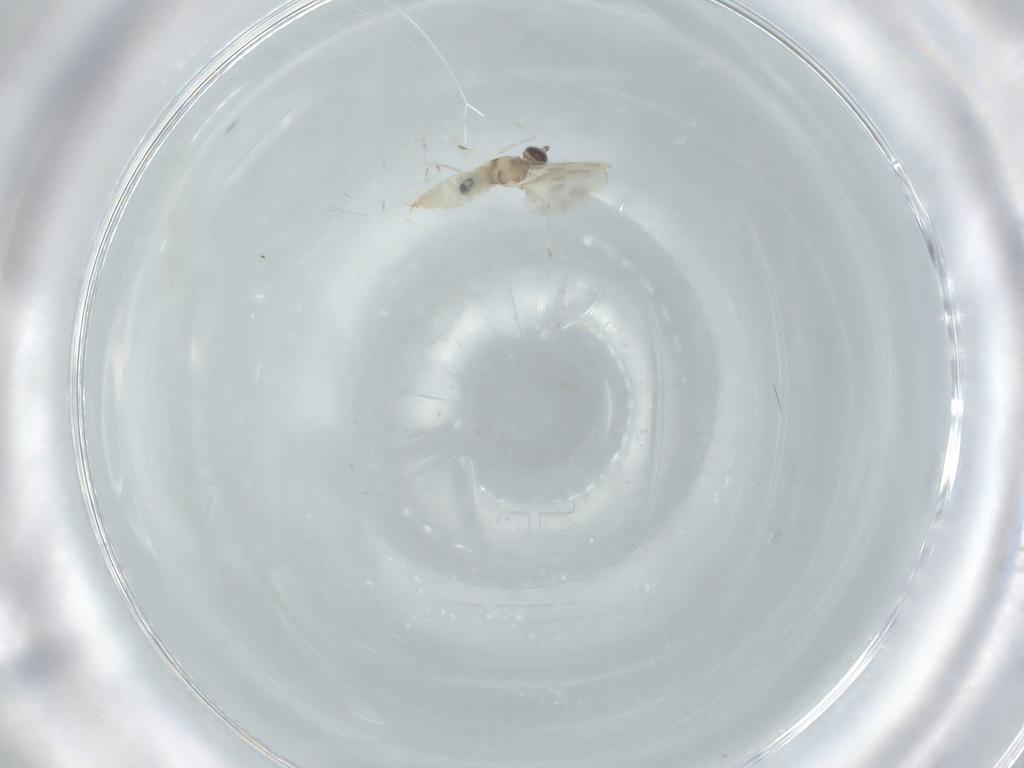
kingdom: Animalia
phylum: Arthropoda
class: Insecta
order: Diptera
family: Cecidomyiidae
